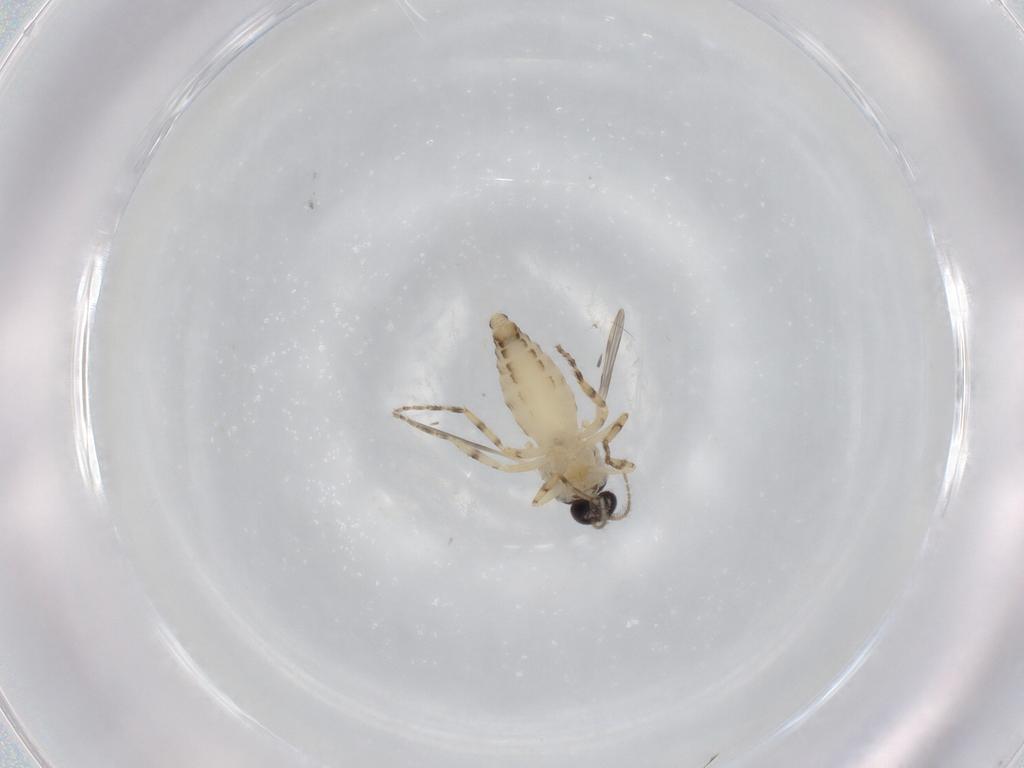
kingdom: Animalia
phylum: Arthropoda
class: Insecta
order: Diptera
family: Ceratopogonidae
